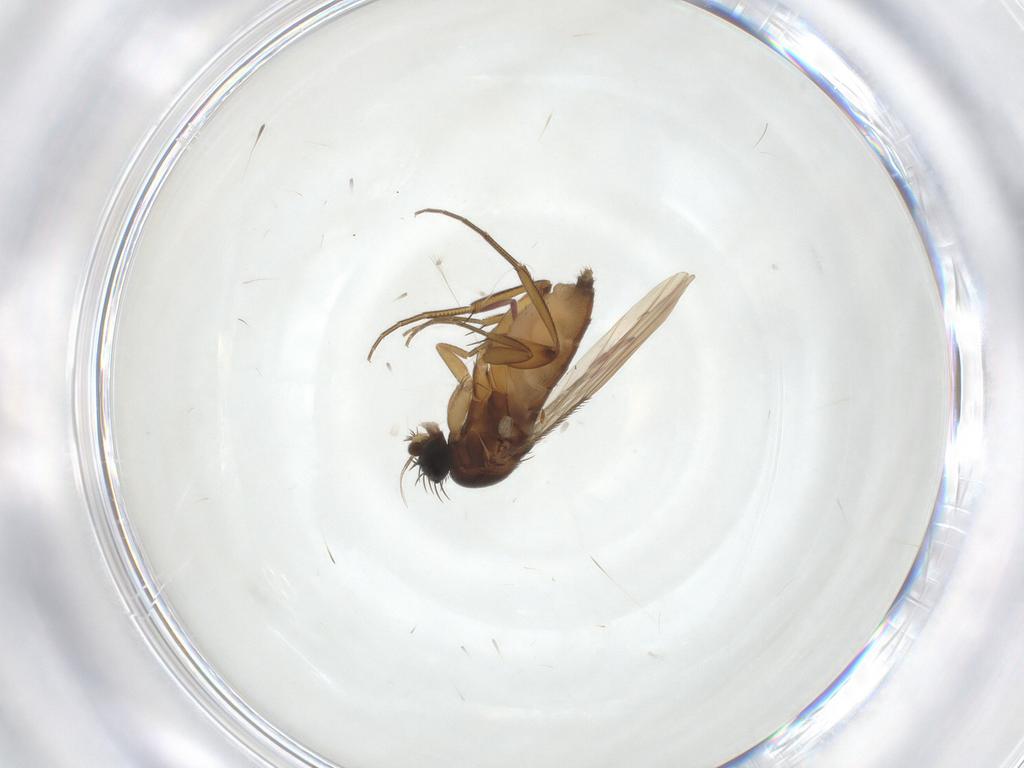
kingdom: Animalia
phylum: Arthropoda
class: Insecta
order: Diptera
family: Phoridae
